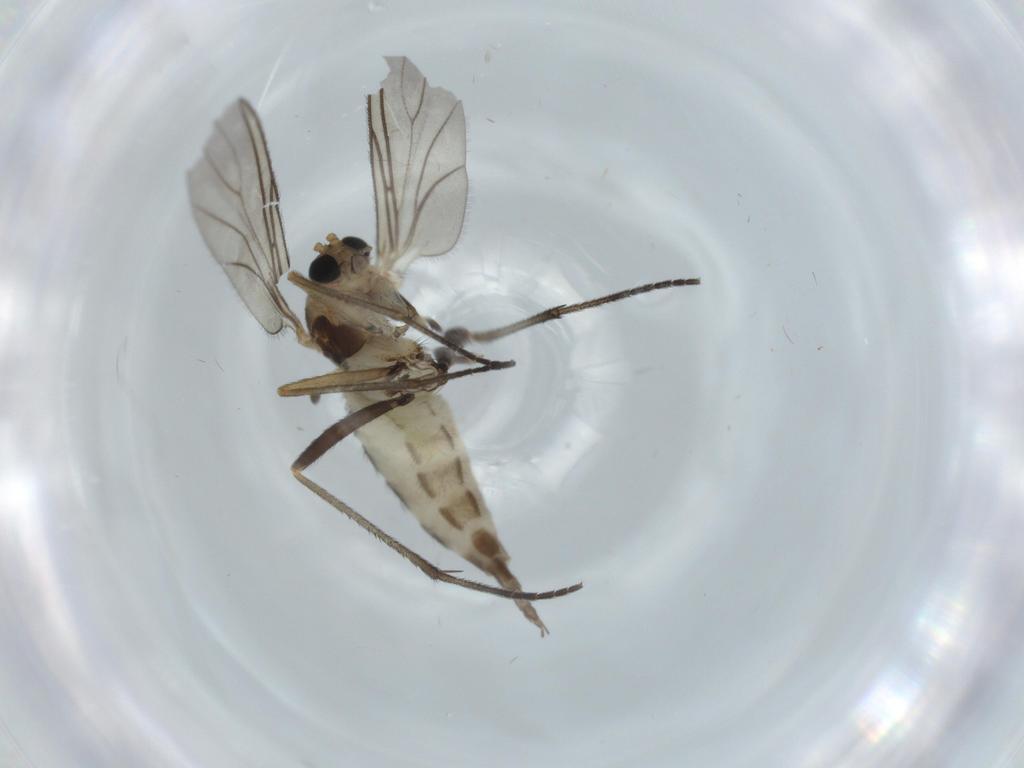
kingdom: Animalia
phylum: Arthropoda
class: Insecta
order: Diptera
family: Sciaridae
